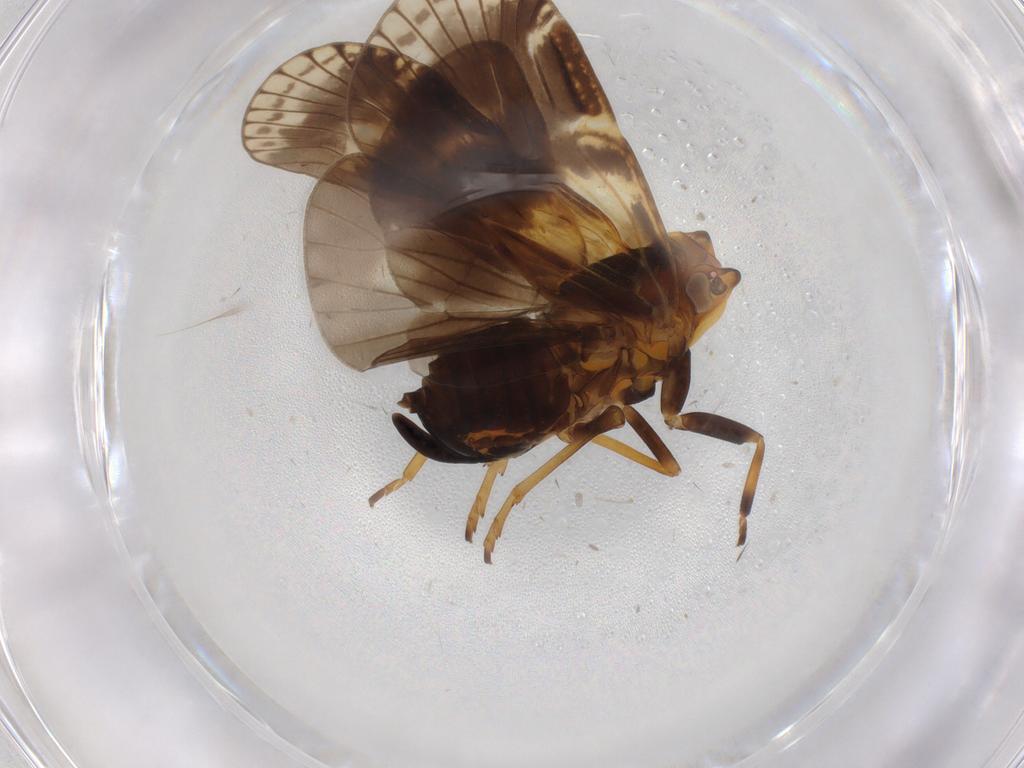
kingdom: Animalia
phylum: Arthropoda
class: Insecta
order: Hemiptera
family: Cixiidae
